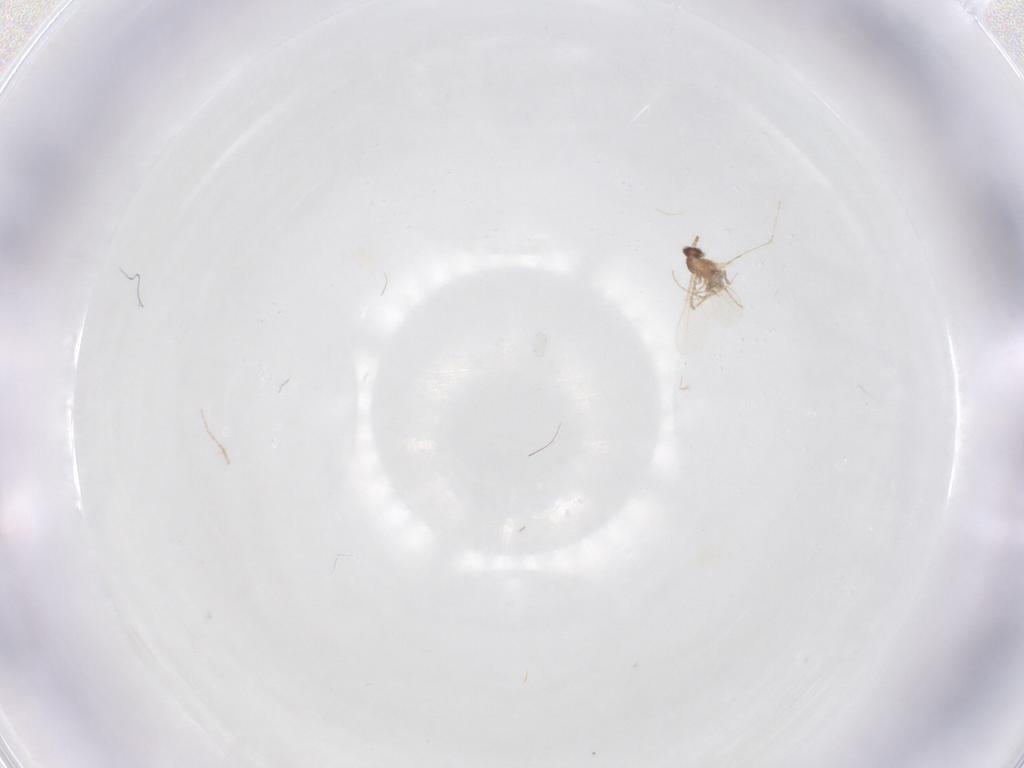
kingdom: Animalia
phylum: Arthropoda
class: Insecta
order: Diptera
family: Cecidomyiidae
